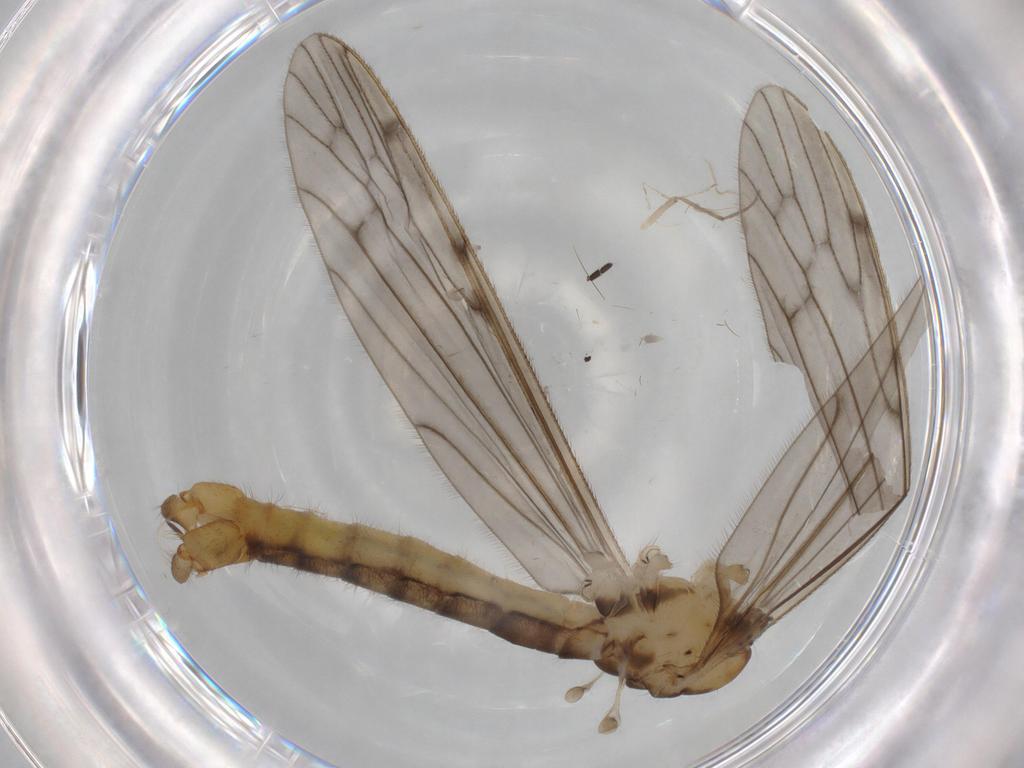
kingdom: Animalia
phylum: Arthropoda
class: Insecta
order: Diptera
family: Limoniidae
